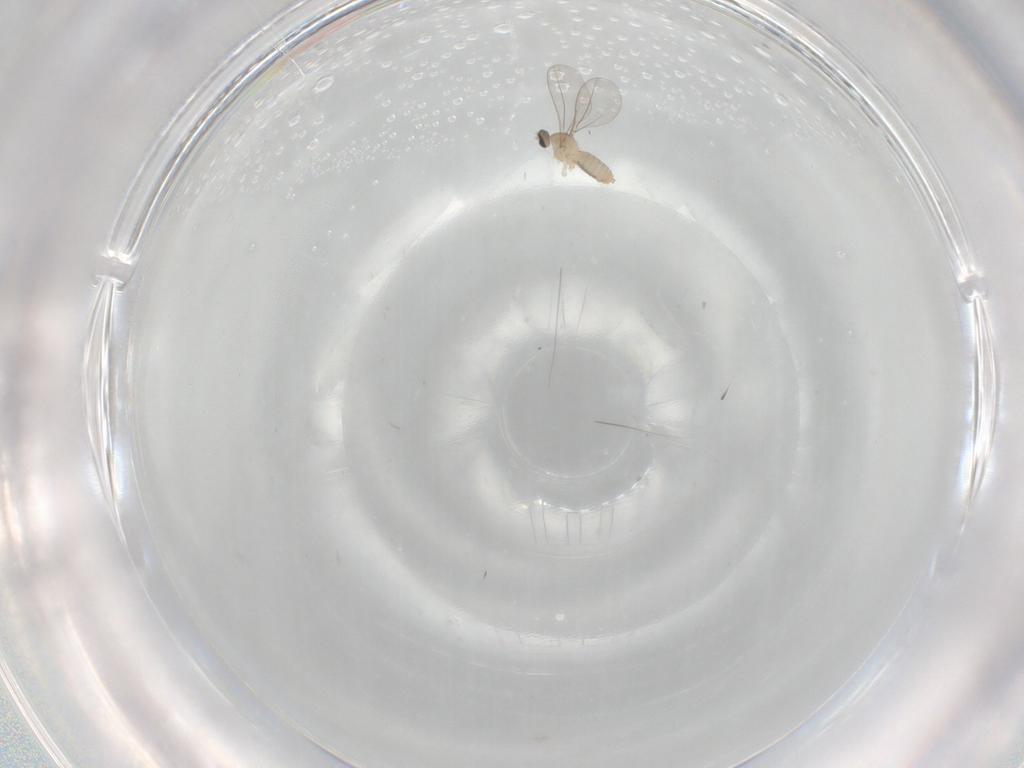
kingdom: Animalia
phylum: Arthropoda
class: Insecta
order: Diptera
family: Cecidomyiidae
